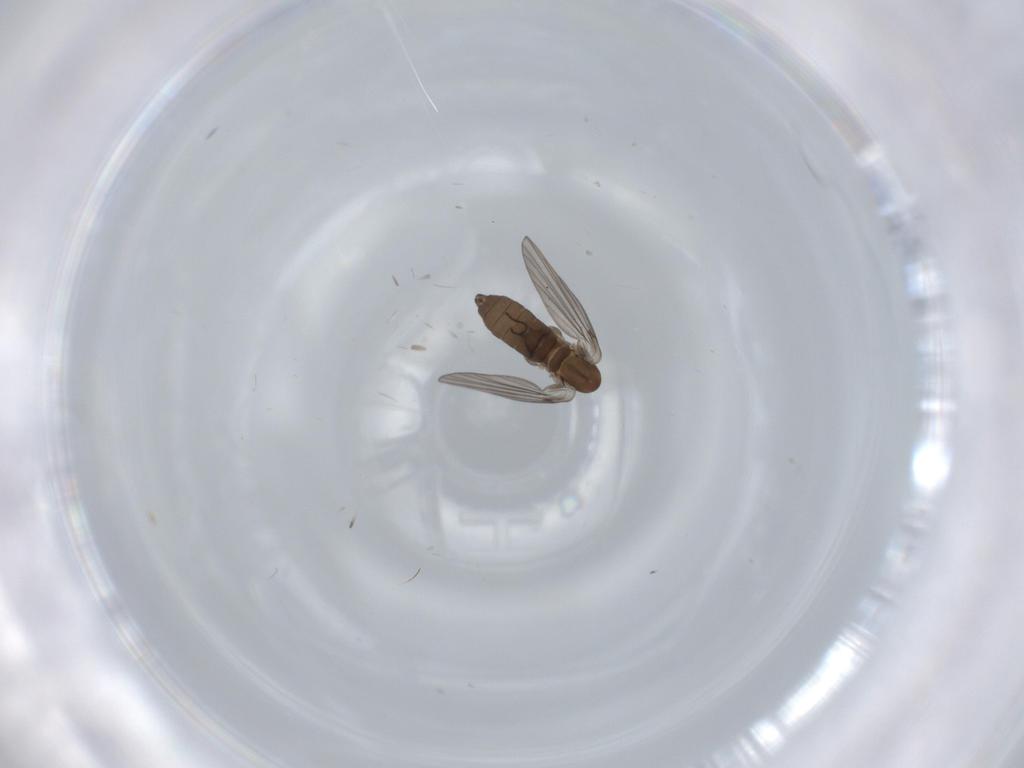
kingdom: Animalia
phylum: Arthropoda
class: Insecta
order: Diptera
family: Psychodidae
